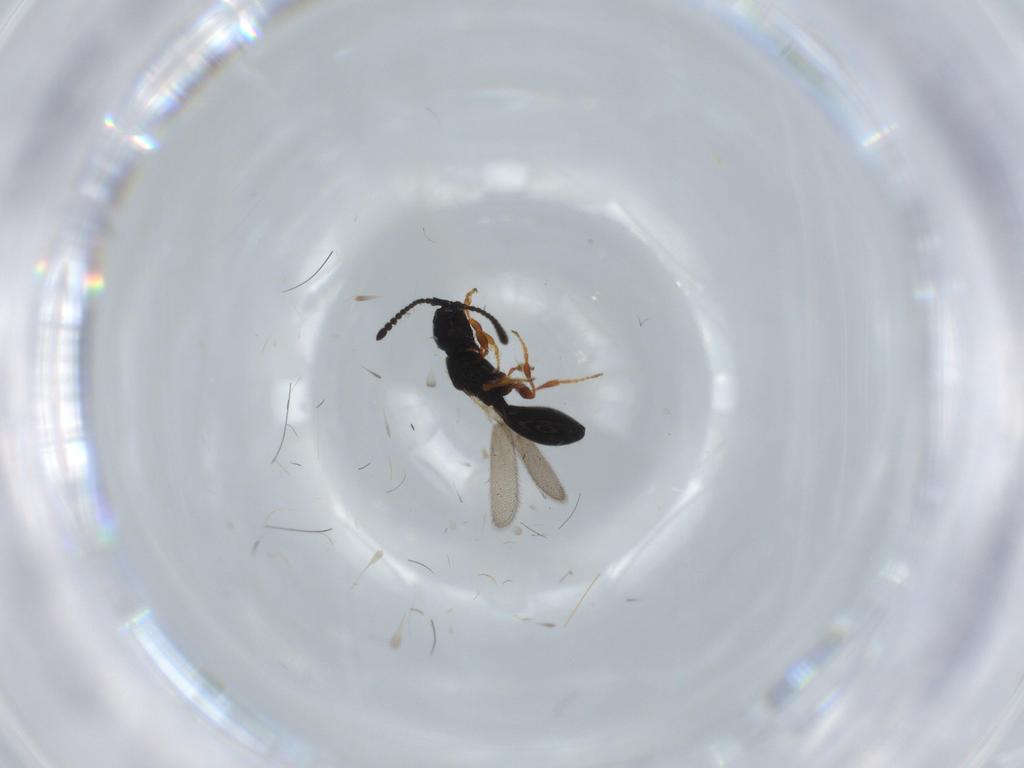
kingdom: Animalia
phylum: Arthropoda
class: Insecta
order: Hymenoptera
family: Diapriidae
